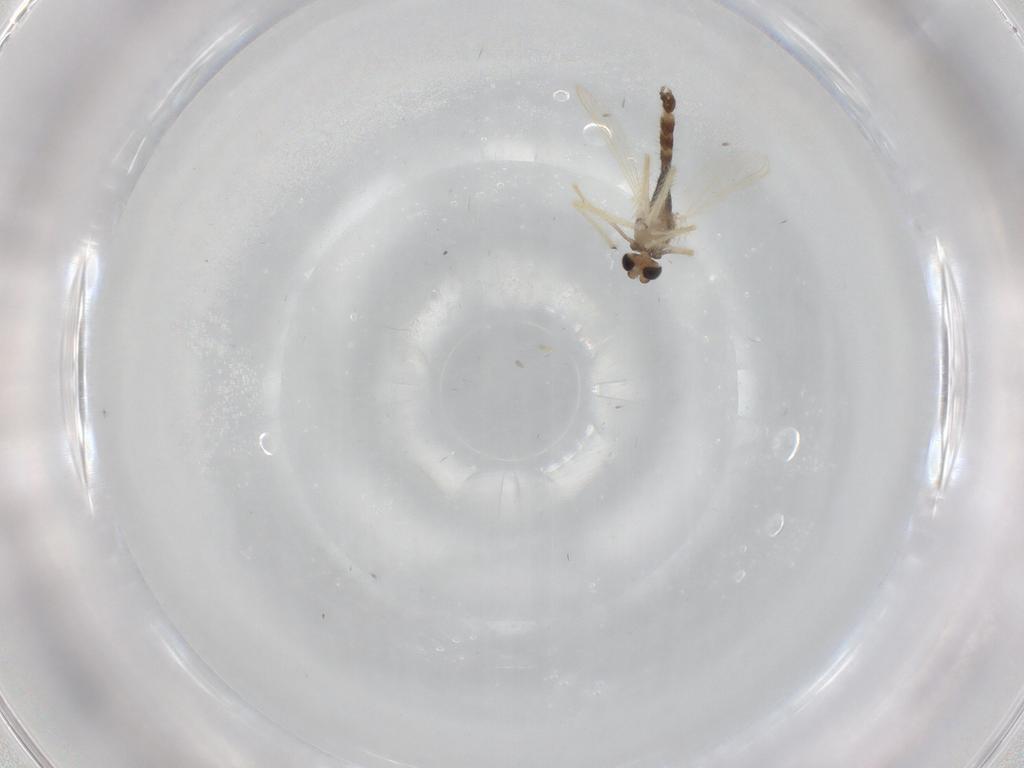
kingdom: Animalia
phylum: Arthropoda
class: Insecta
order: Diptera
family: Chironomidae
